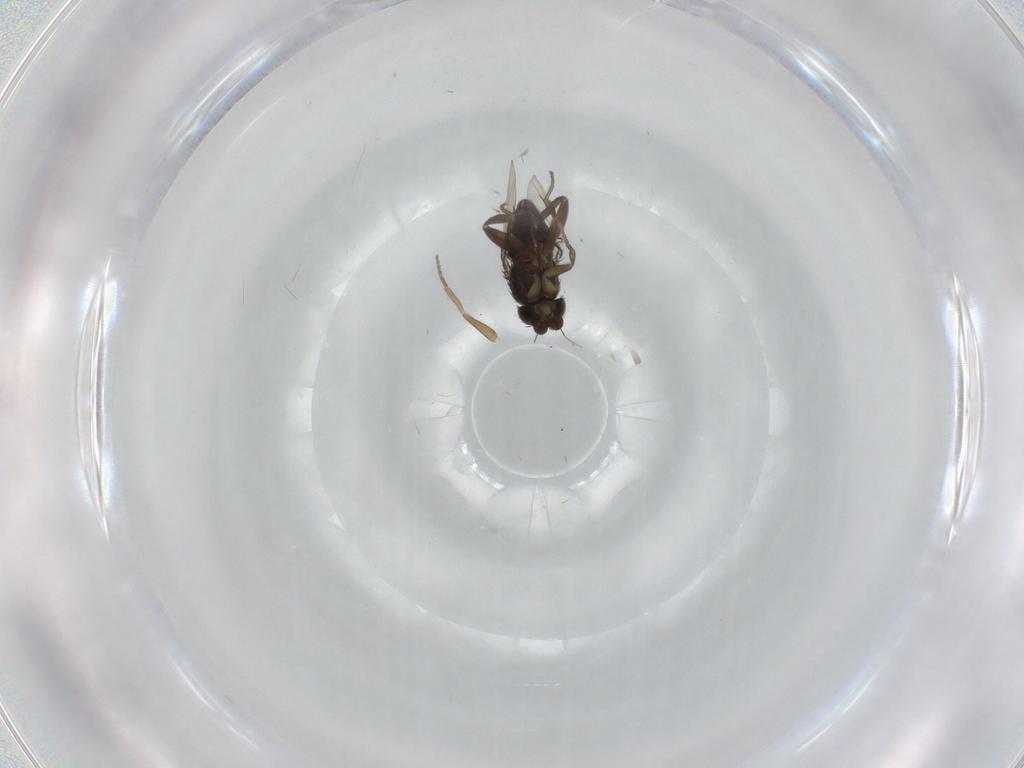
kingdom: Animalia
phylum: Arthropoda
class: Insecta
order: Diptera
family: Phoridae
